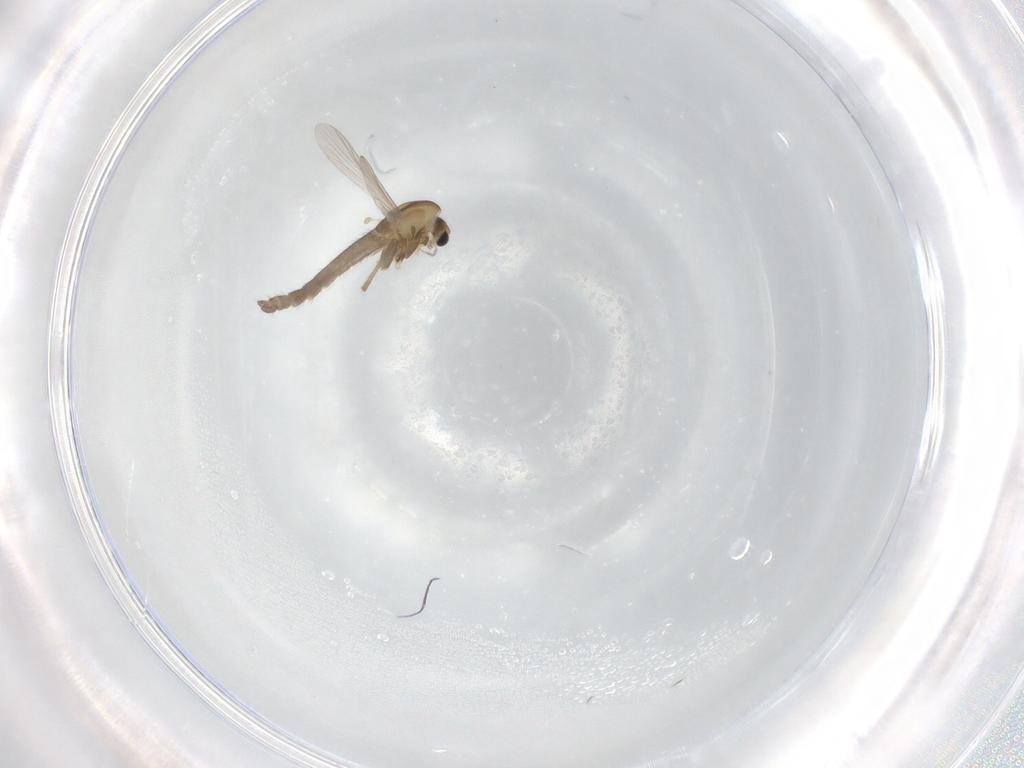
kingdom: Animalia
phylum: Arthropoda
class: Insecta
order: Diptera
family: Chironomidae
